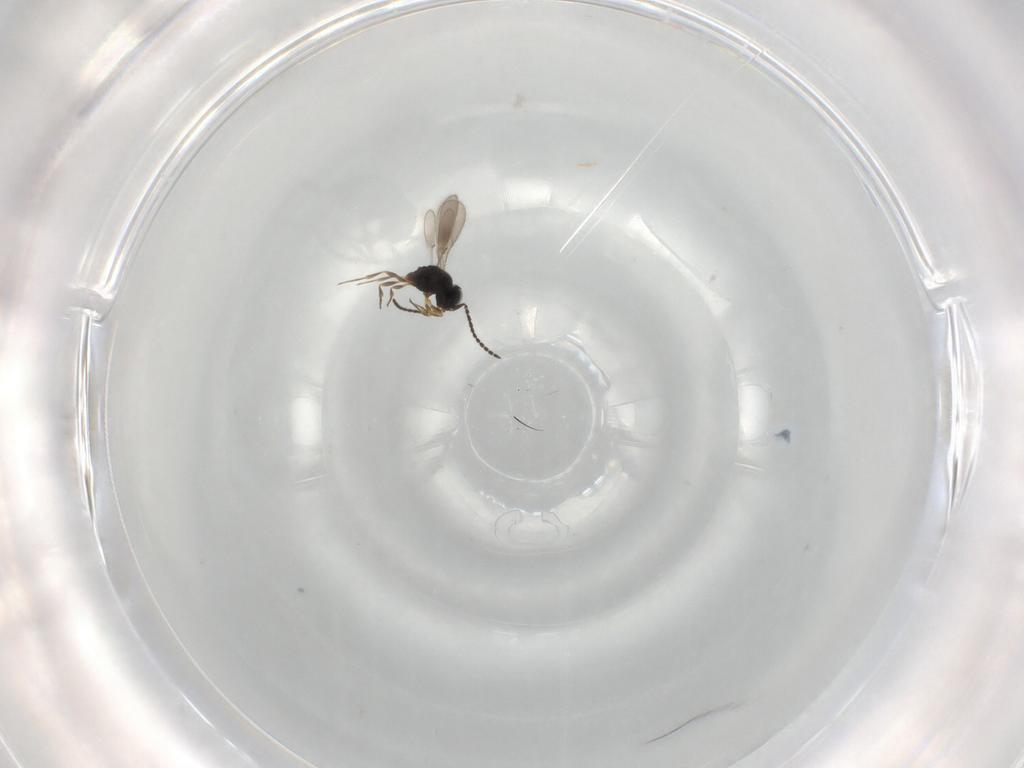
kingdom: Animalia
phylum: Arthropoda
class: Insecta
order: Hymenoptera
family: Scelionidae
